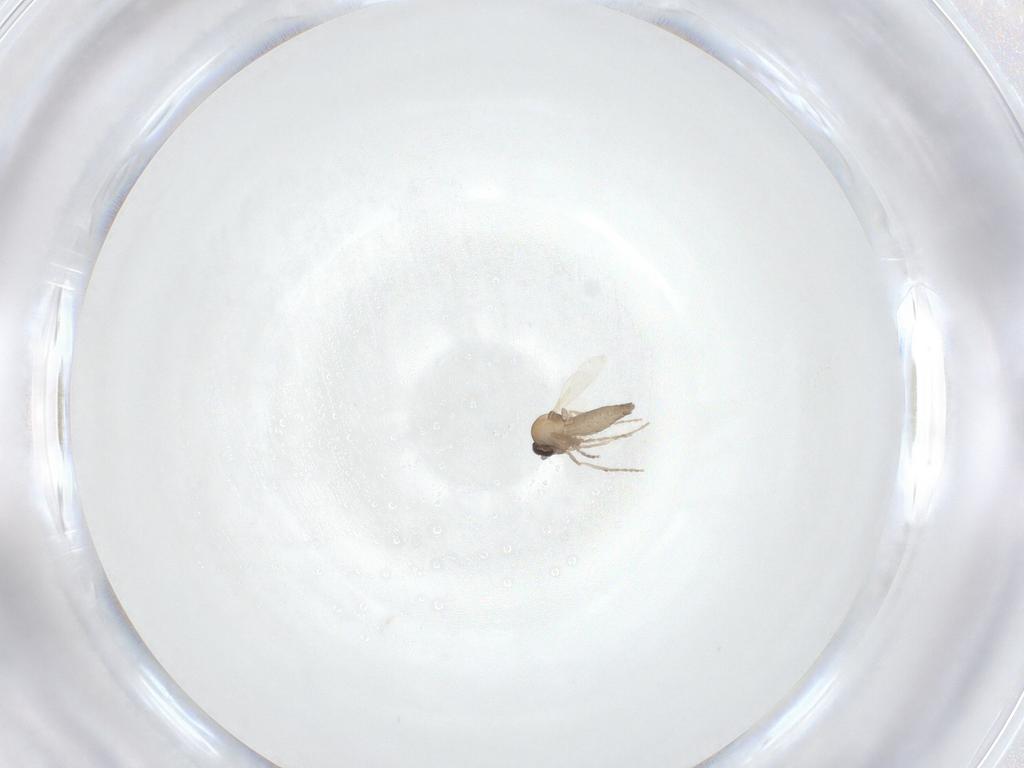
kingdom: Animalia
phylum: Arthropoda
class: Insecta
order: Diptera
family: Ceratopogonidae
